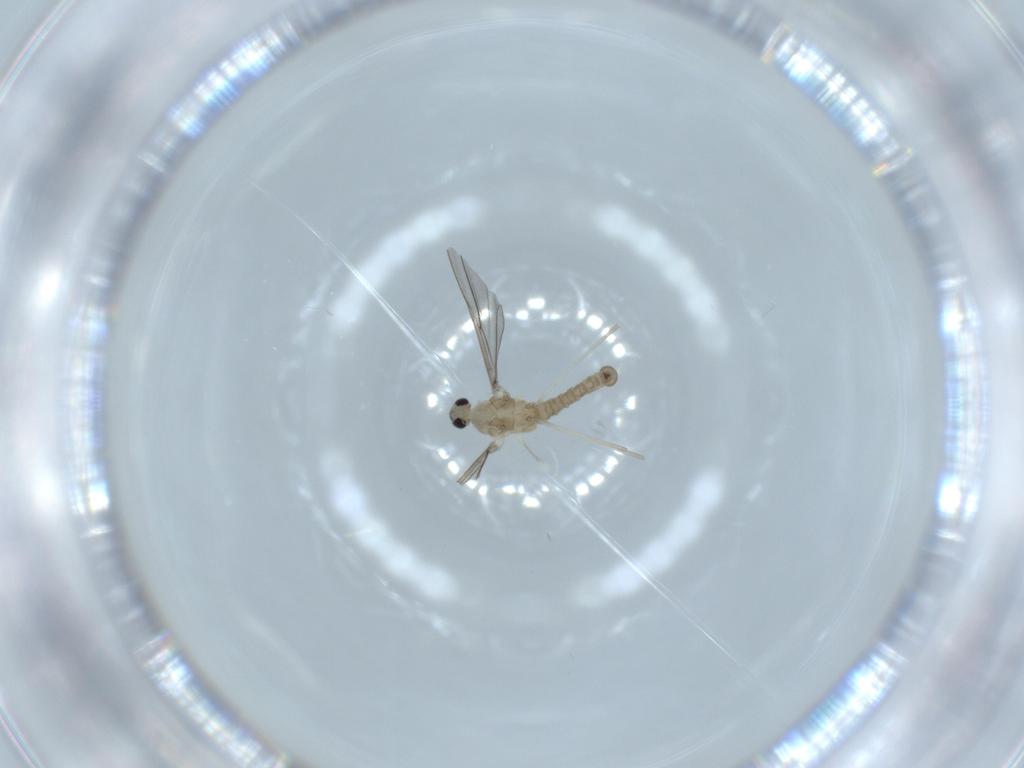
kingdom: Animalia
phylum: Arthropoda
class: Insecta
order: Diptera
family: Cecidomyiidae
